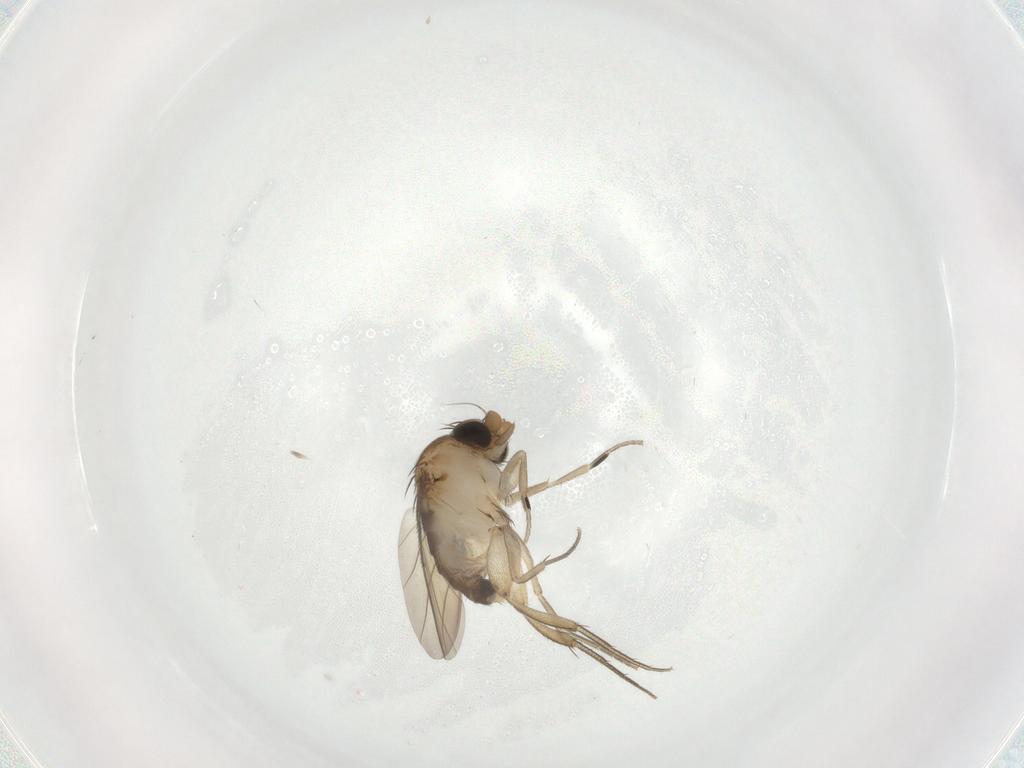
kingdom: Animalia
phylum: Arthropoda
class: Insecta
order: Diptera
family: Phoridae
